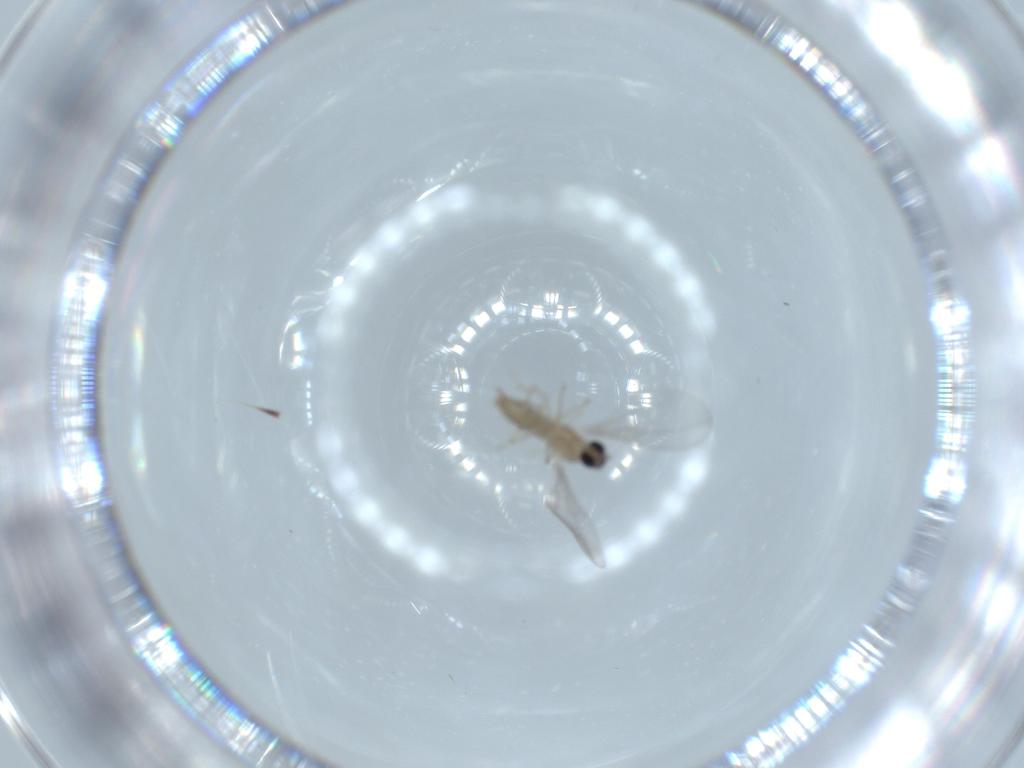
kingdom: Animalia
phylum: Arthropoda
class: Insecta
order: Diptera
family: Cecidomyiidae
